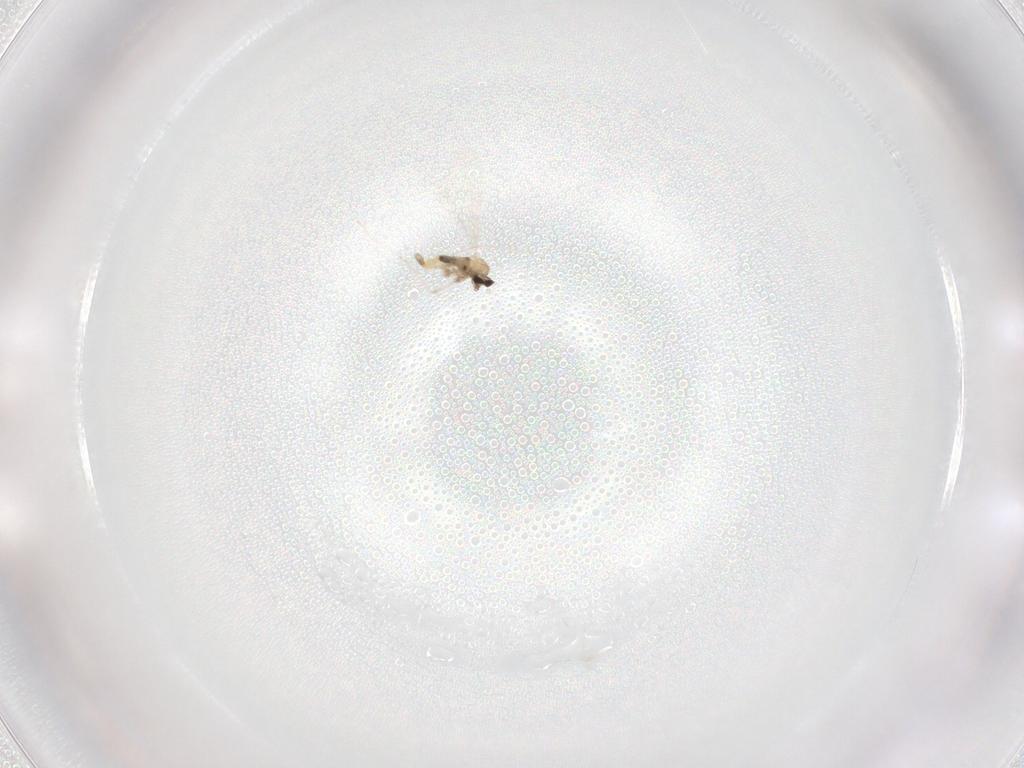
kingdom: Animalia
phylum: Arthropoda
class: Insecta
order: Diptera
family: Cecidomyiidae
